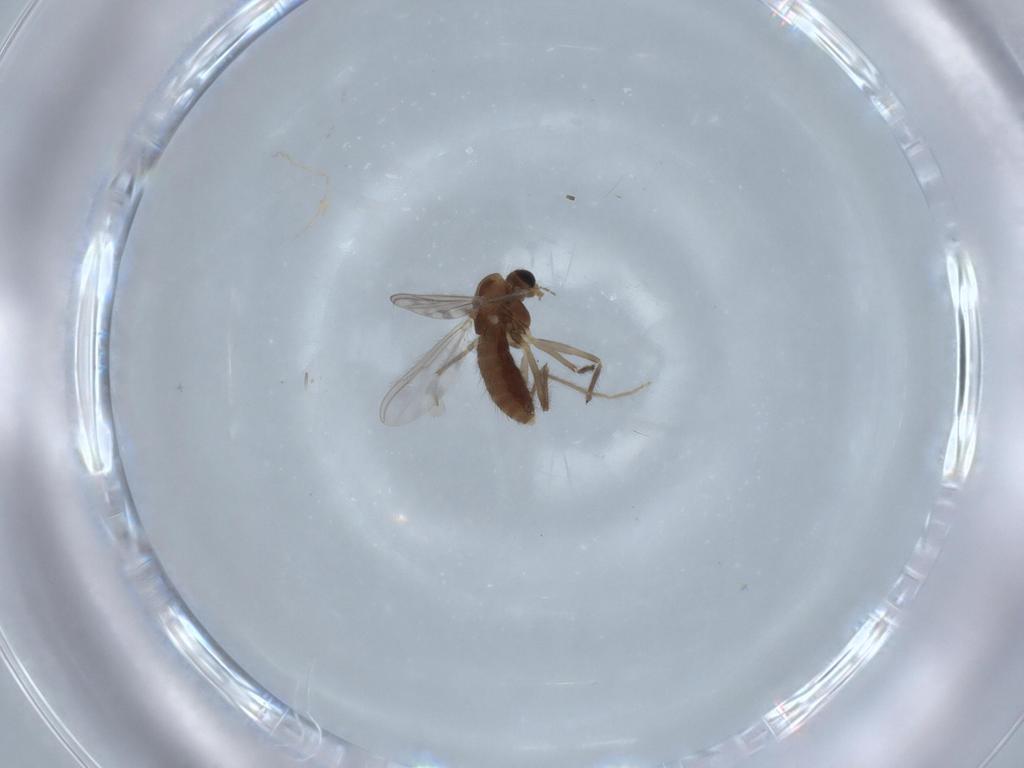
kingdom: Animalia
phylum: Arthropoda
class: Insecta
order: Diptera
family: Chironomidae
